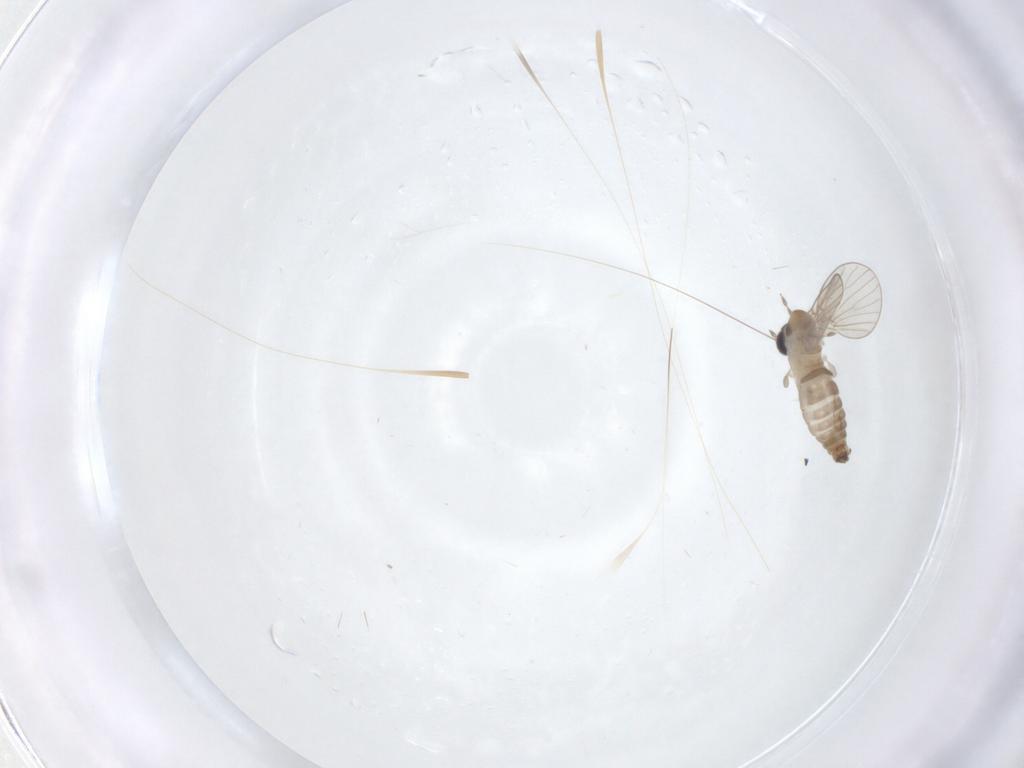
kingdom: Animalia
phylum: Arthropoda
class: Insecta
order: Diptera
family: Psychodidae
